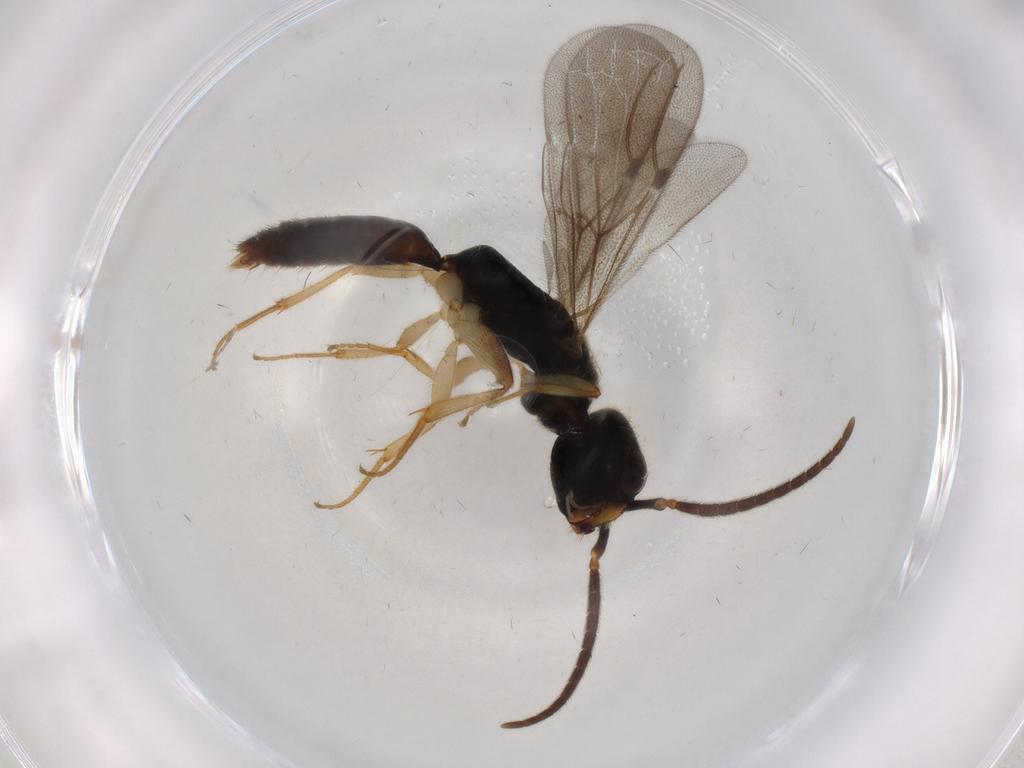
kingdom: Animalia
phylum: Arthropoda
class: Insecta
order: Hymenoptera
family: Bethylidae
